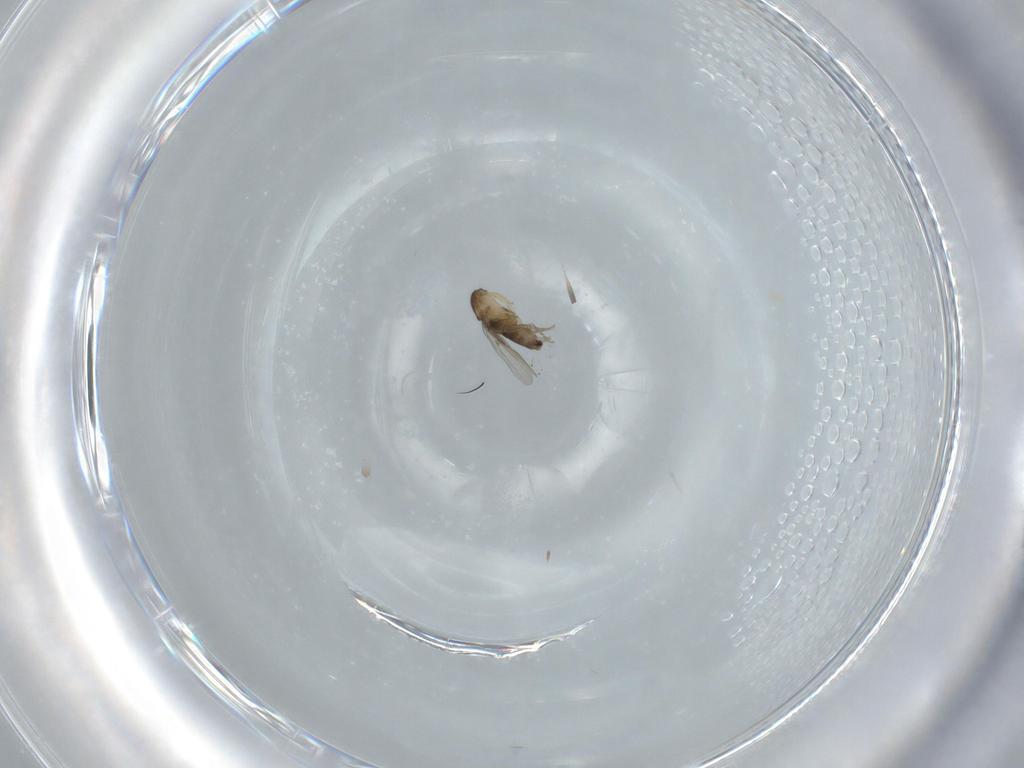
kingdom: Animalia
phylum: Arthropoda
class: Insecta
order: Diptera
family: Phoridae
